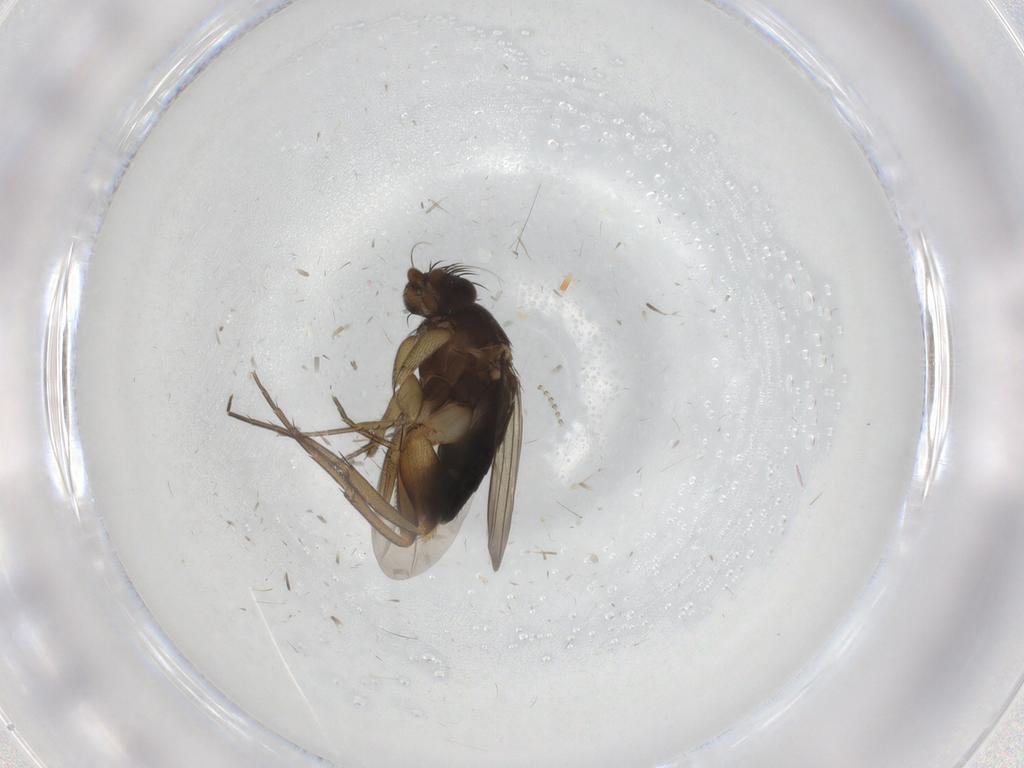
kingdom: Animalia
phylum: Arthropoda
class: Insecta
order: Diptera
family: Phoridae
